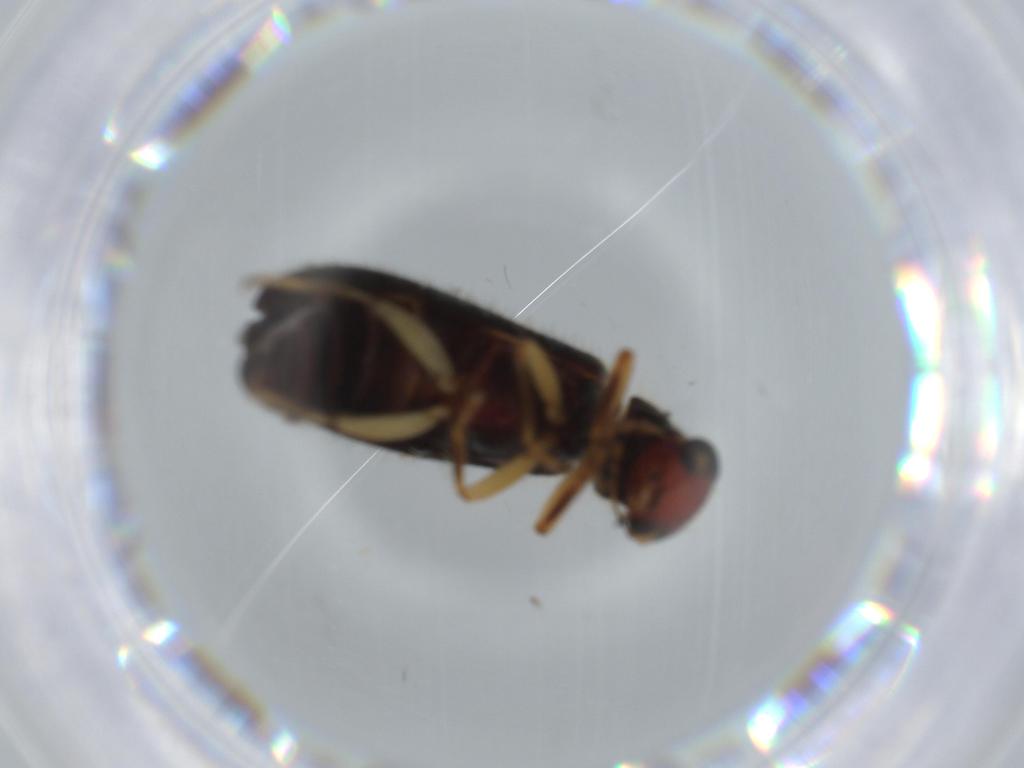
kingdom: Animalia
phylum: Arthropoda
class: Insecta
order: Coleoptera
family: Cleridae
